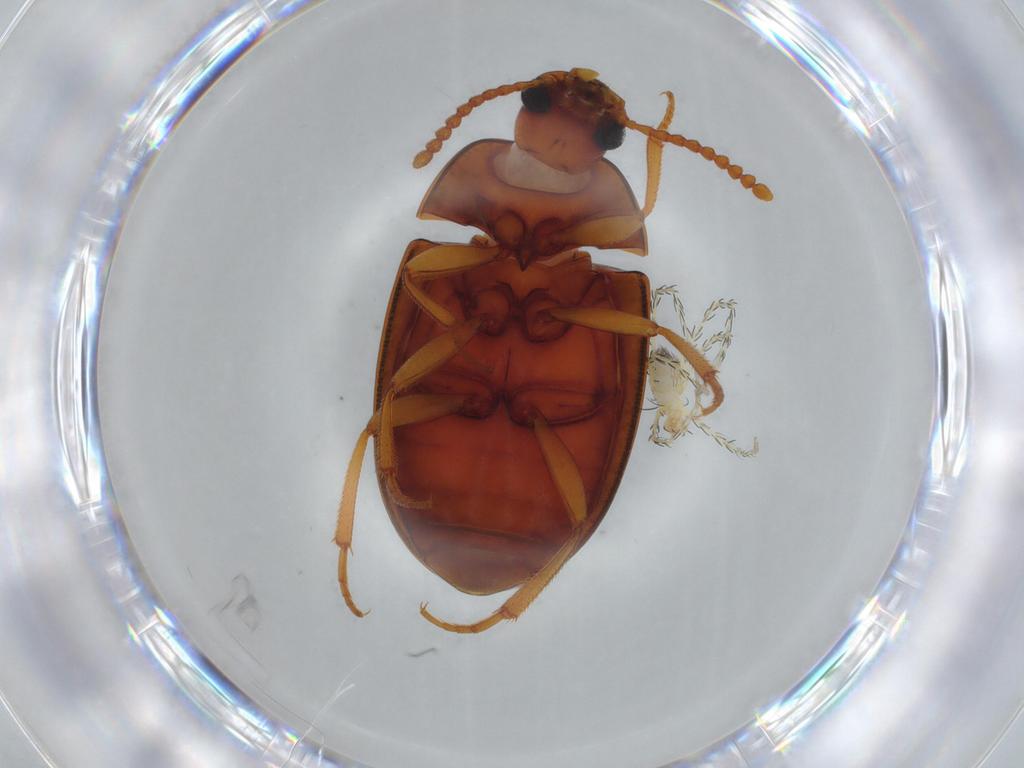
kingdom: Animalia
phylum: Arthropoda
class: Arachnida
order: Trombidiformes
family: Erythraeidae
